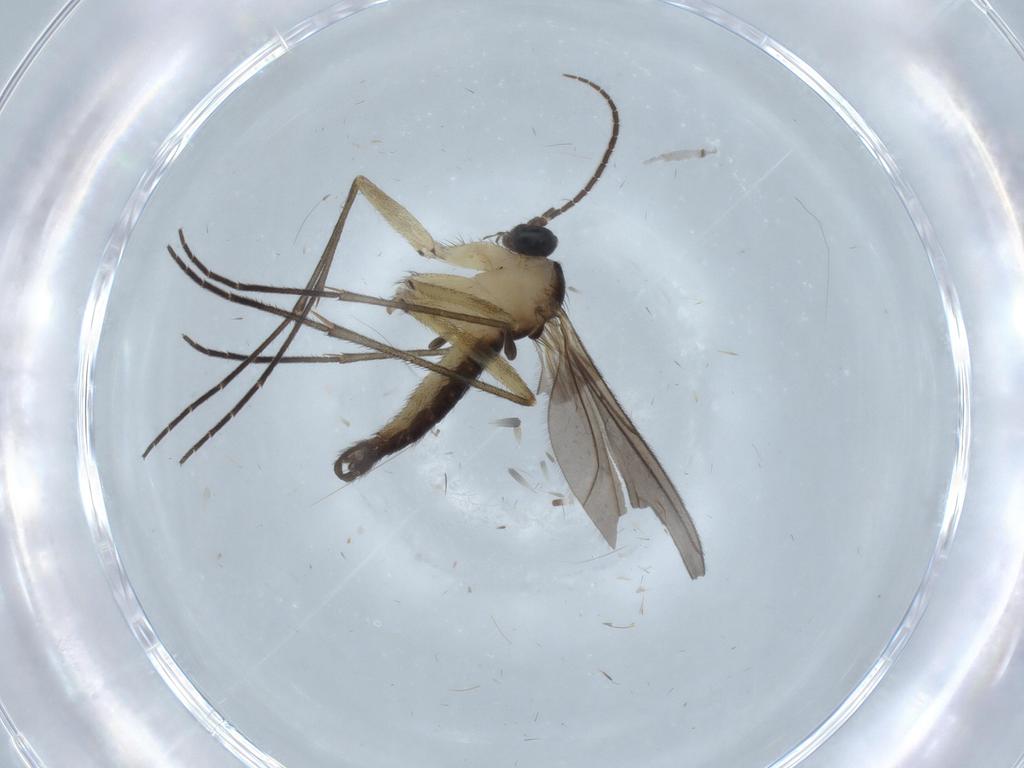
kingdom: Animalia
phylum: Arthropoda
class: Insecta
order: Diptera
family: Sciaridae
